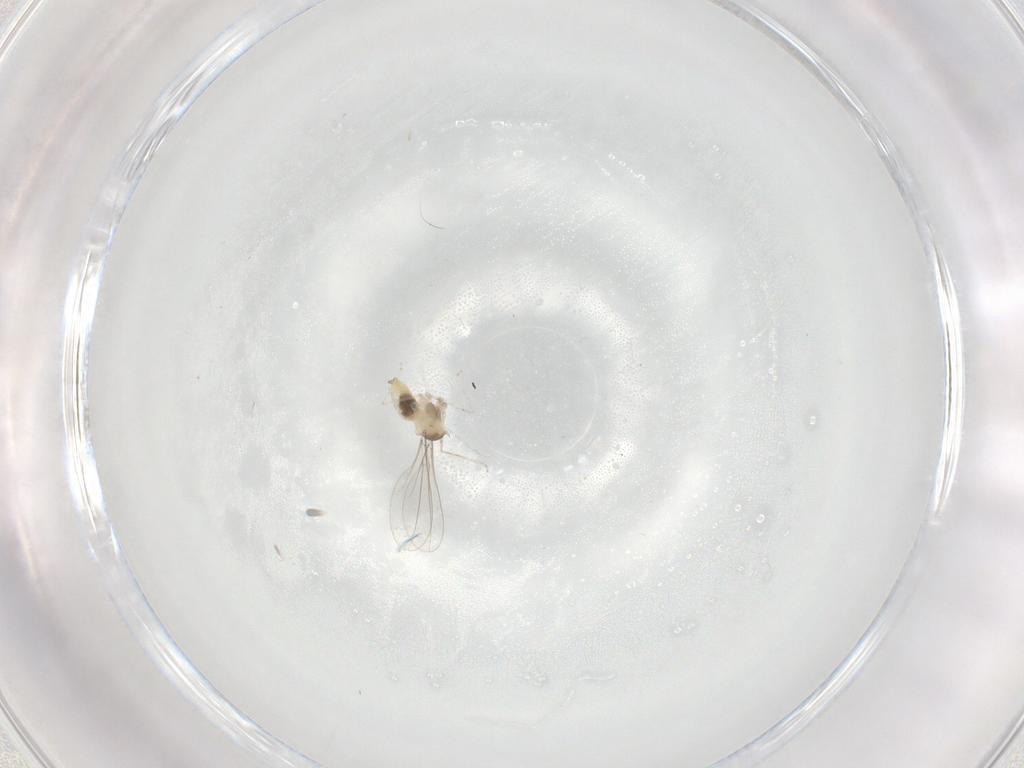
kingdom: Animalia
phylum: Arthropoda
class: Insecta
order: Diptera
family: Cecidomyiidae
